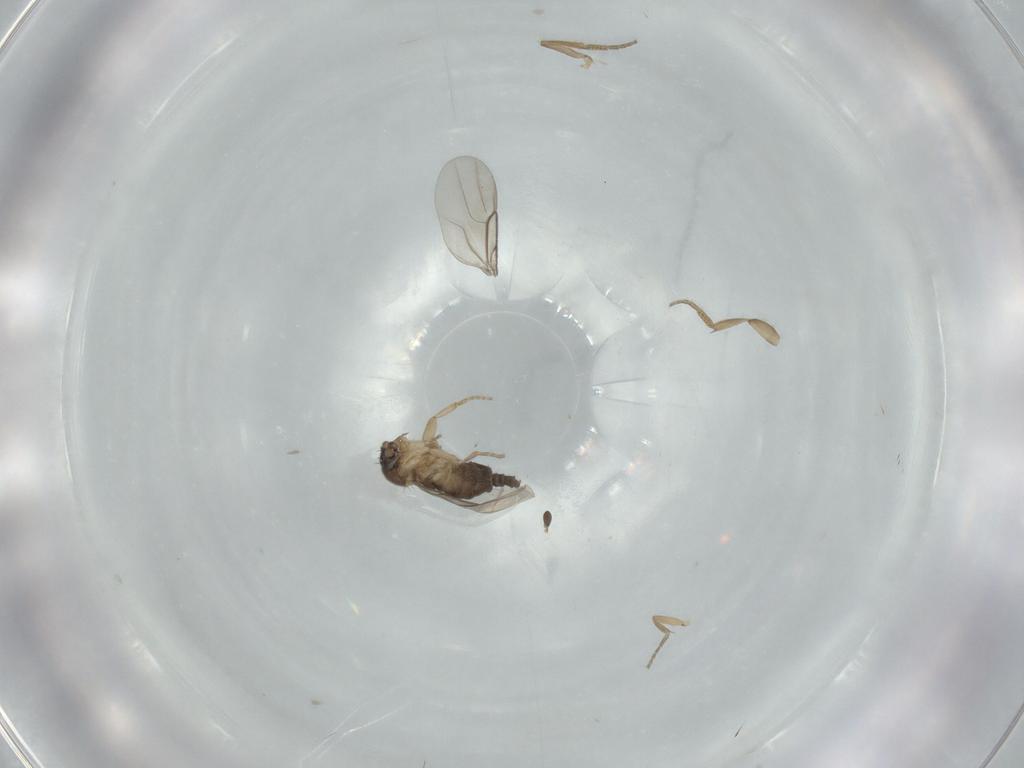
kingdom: Animalia
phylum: Arthropoda
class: Insecta
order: Diptera
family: Phoridae
